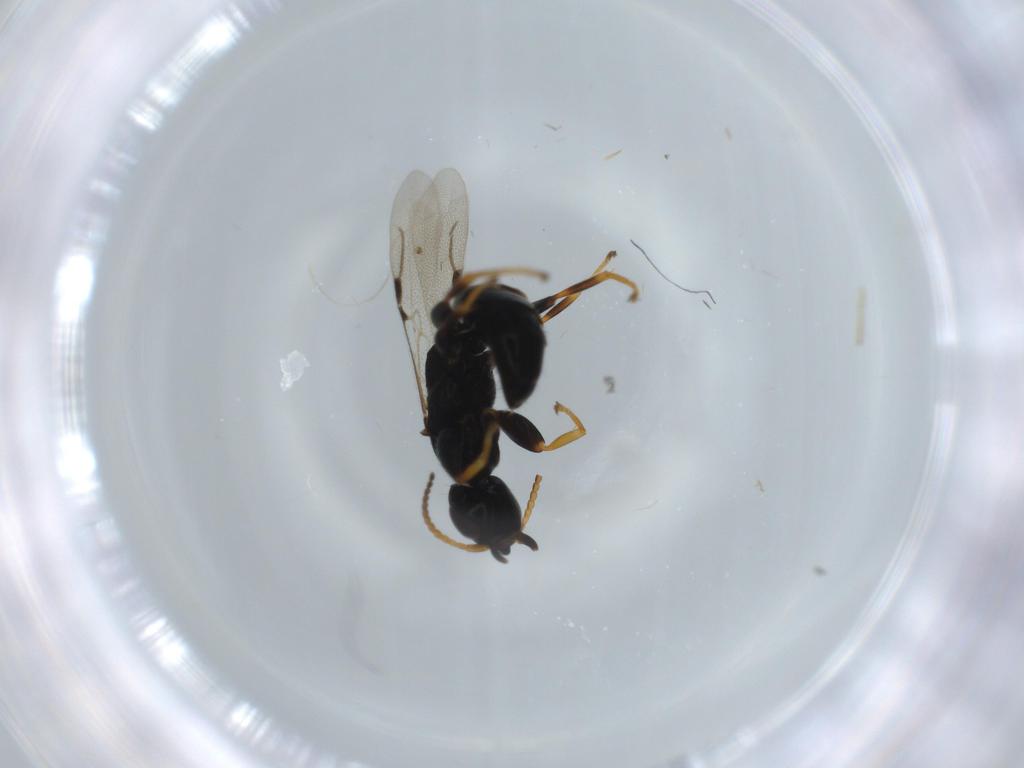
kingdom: Animalia
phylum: Arthropoda
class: Insecta
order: Hymenoptera
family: Bethylidae
